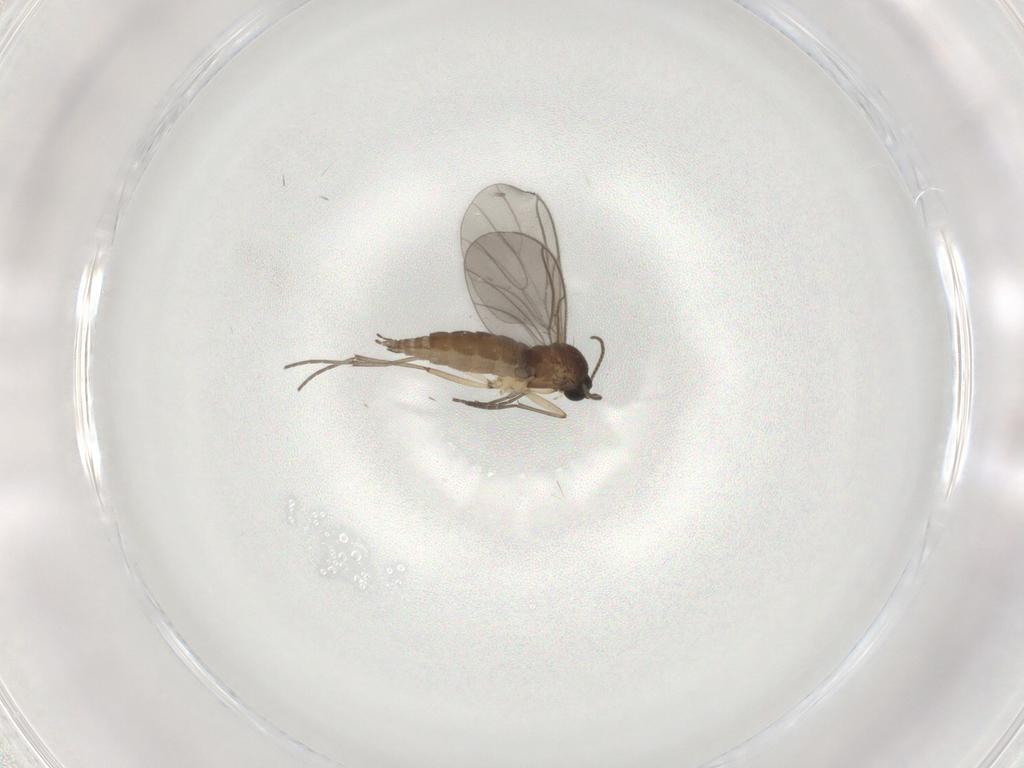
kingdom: Animalia
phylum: Arthropoda
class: Insecta
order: Diptera
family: Sciaridae
